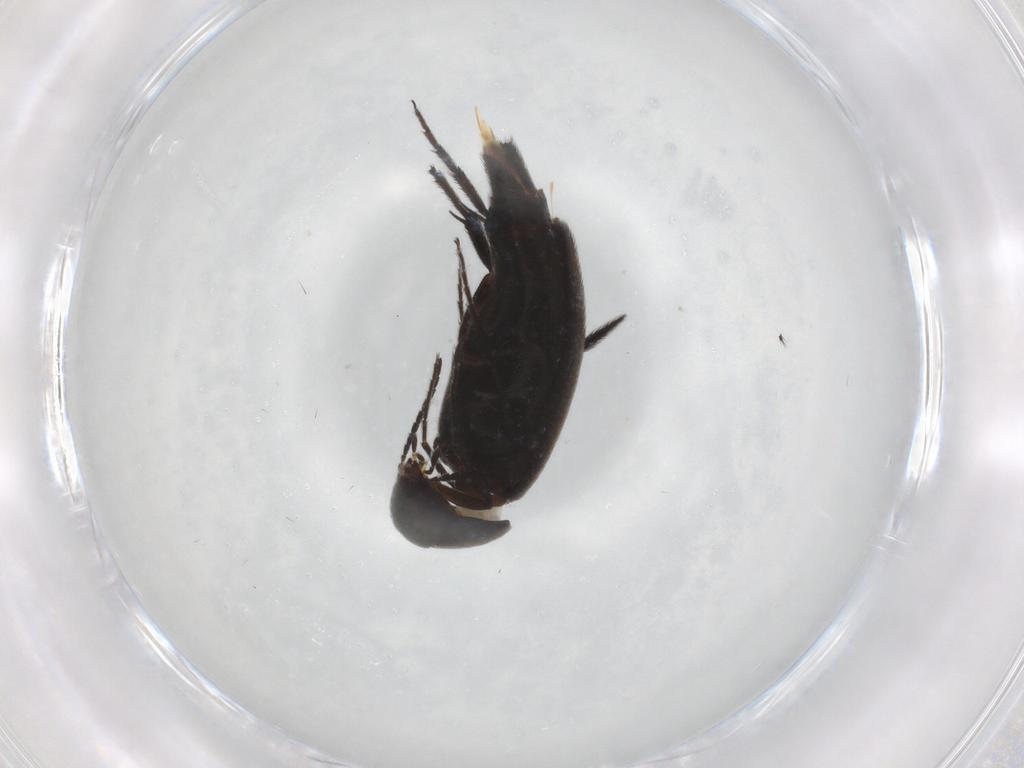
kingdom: Animalia
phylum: Arthropoda
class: Insecta
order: Coleoptera
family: Mordellidae
